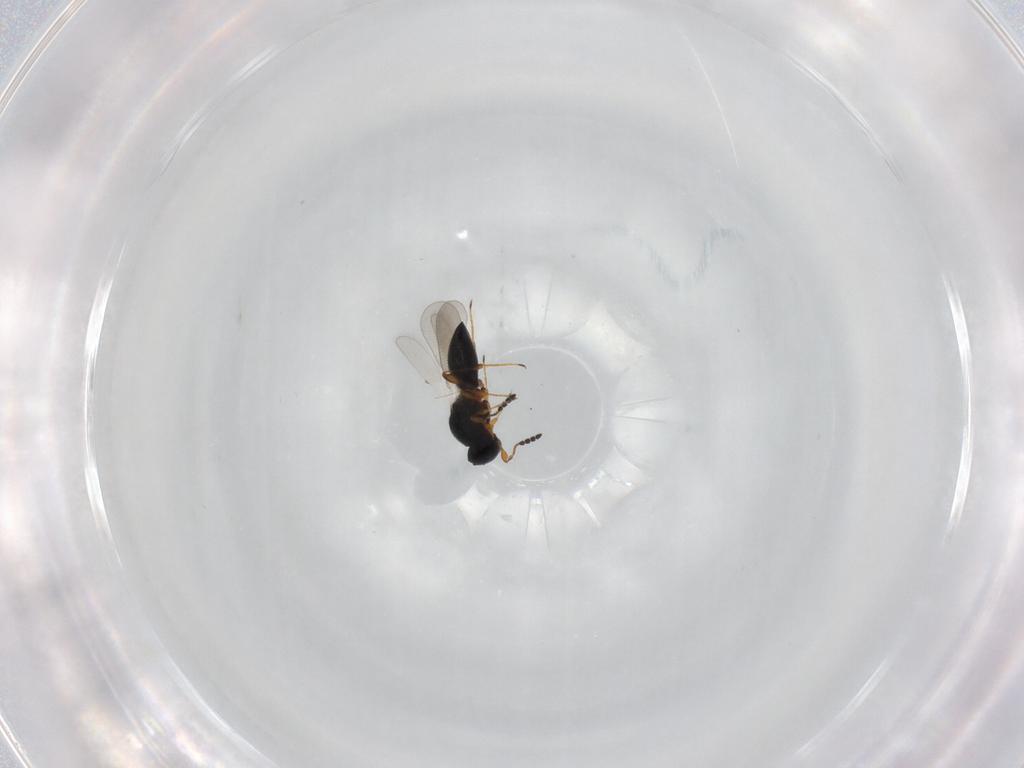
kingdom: Animalia
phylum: Arthropoda
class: Insecta
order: Hymenoptera
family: Platygastridae
